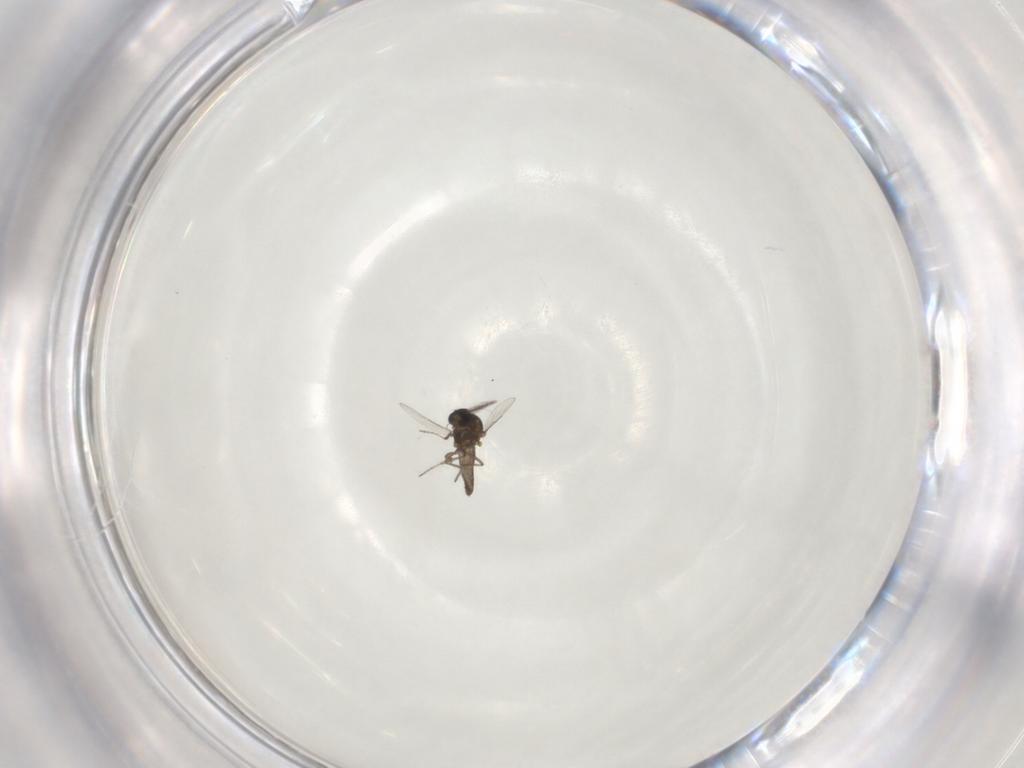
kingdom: Animalia
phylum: Arthropoda
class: Insecta
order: Diptera
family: Ceratopogonidae
